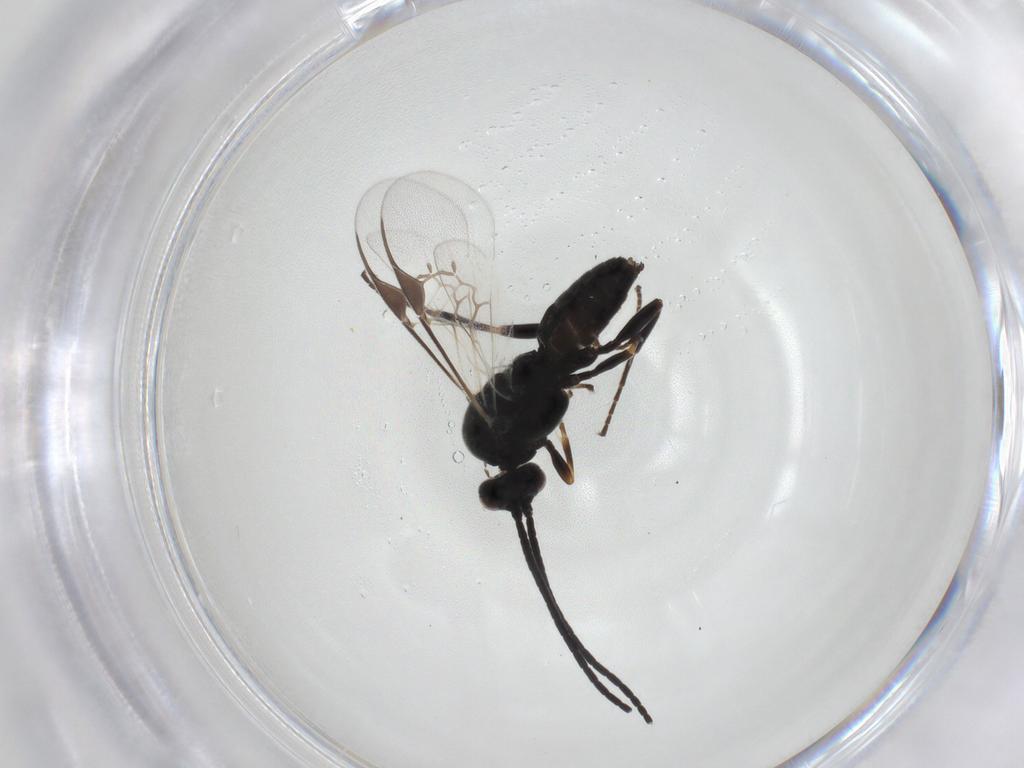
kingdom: Animalia
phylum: Arthropoda
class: Insecta
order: Hymenoptera
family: Braconidae
